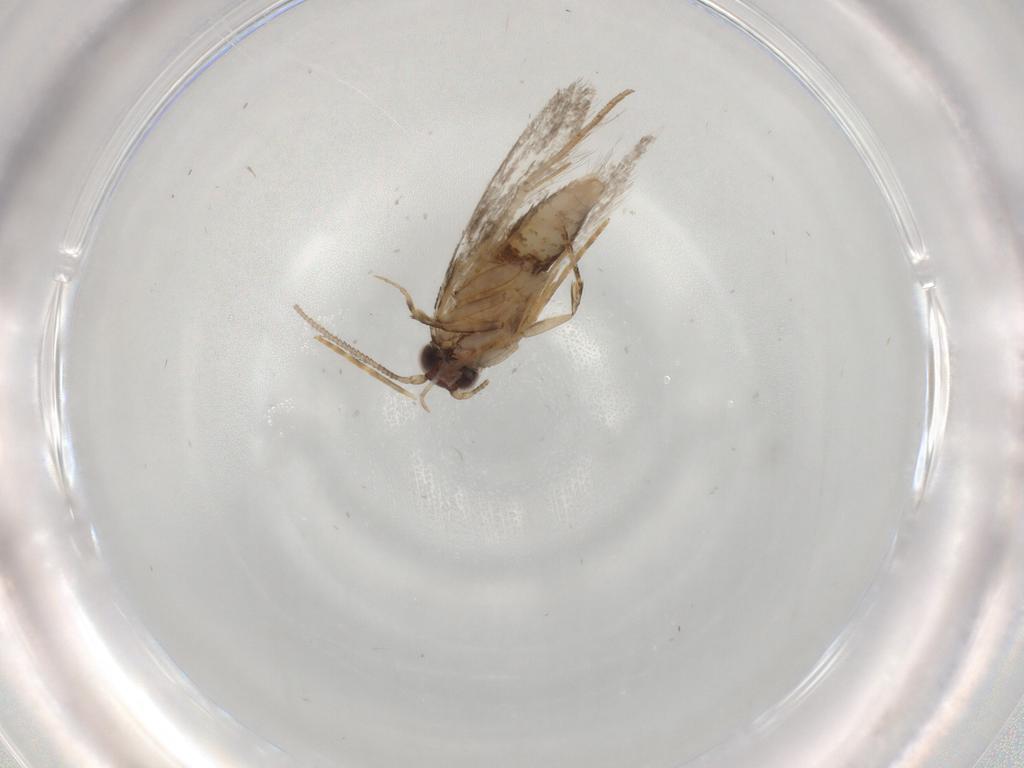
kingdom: Animalia
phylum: Arthropoda
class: Insecta
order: Lepidoptera
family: Tineidae
